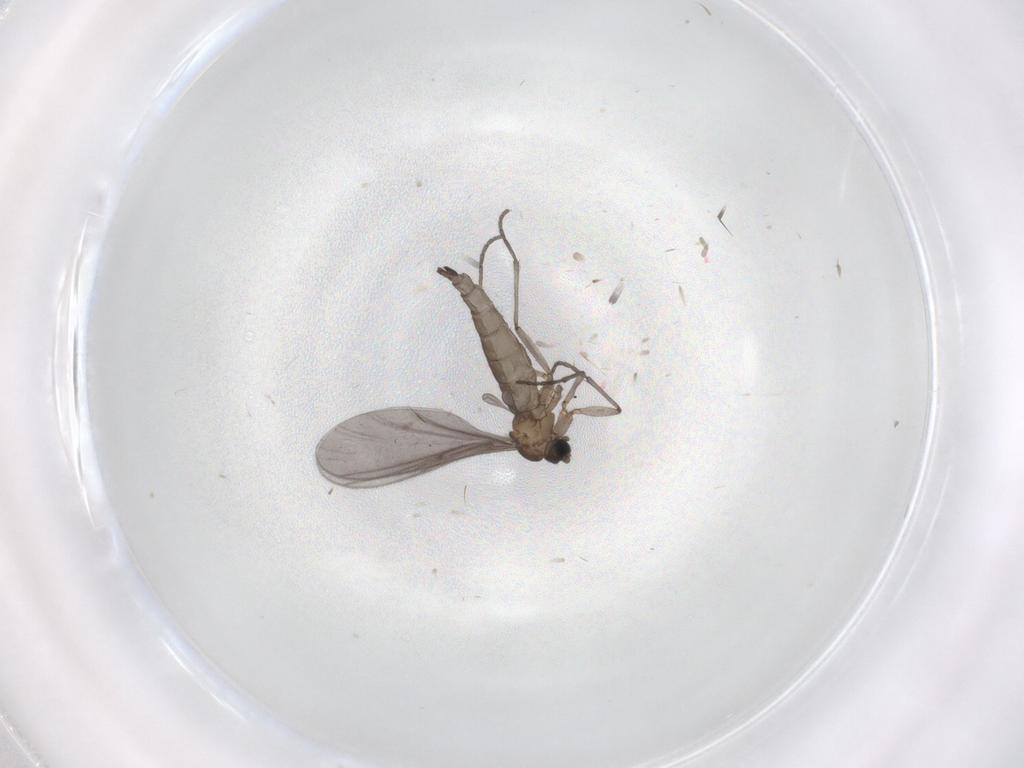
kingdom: Animalia
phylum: Arthropoda
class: Insecta
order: Diptera
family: Sciaridae
